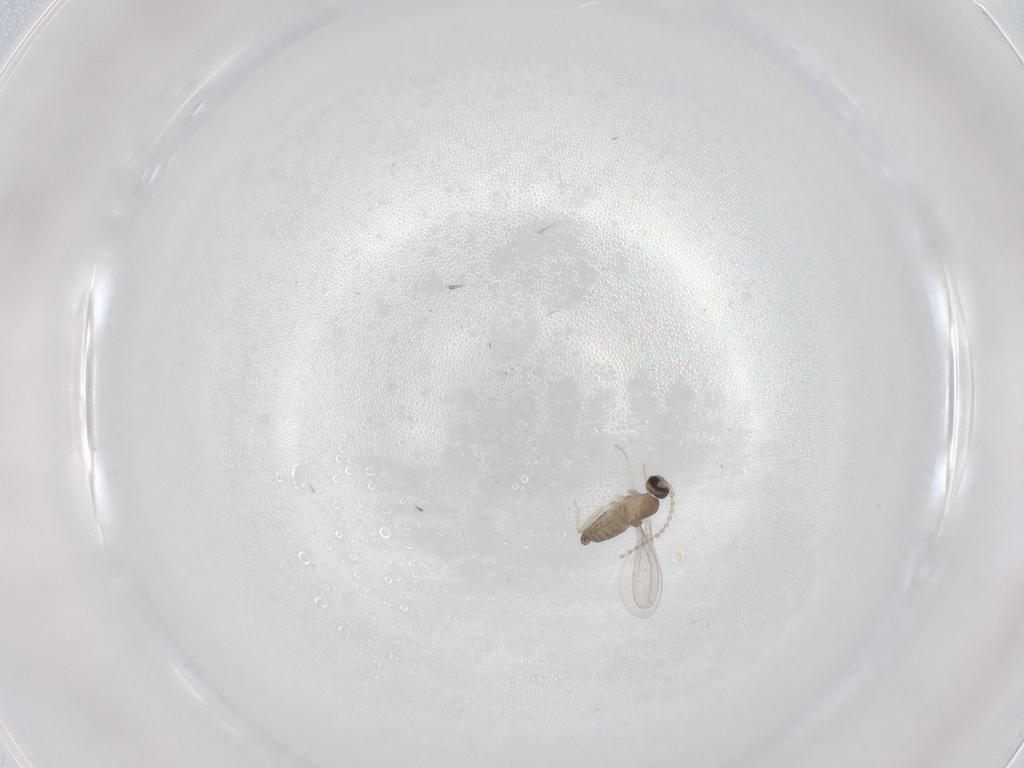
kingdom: Animalia
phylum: Arthropoda
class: Insecta
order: Diptera
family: Cecidomyiidae
